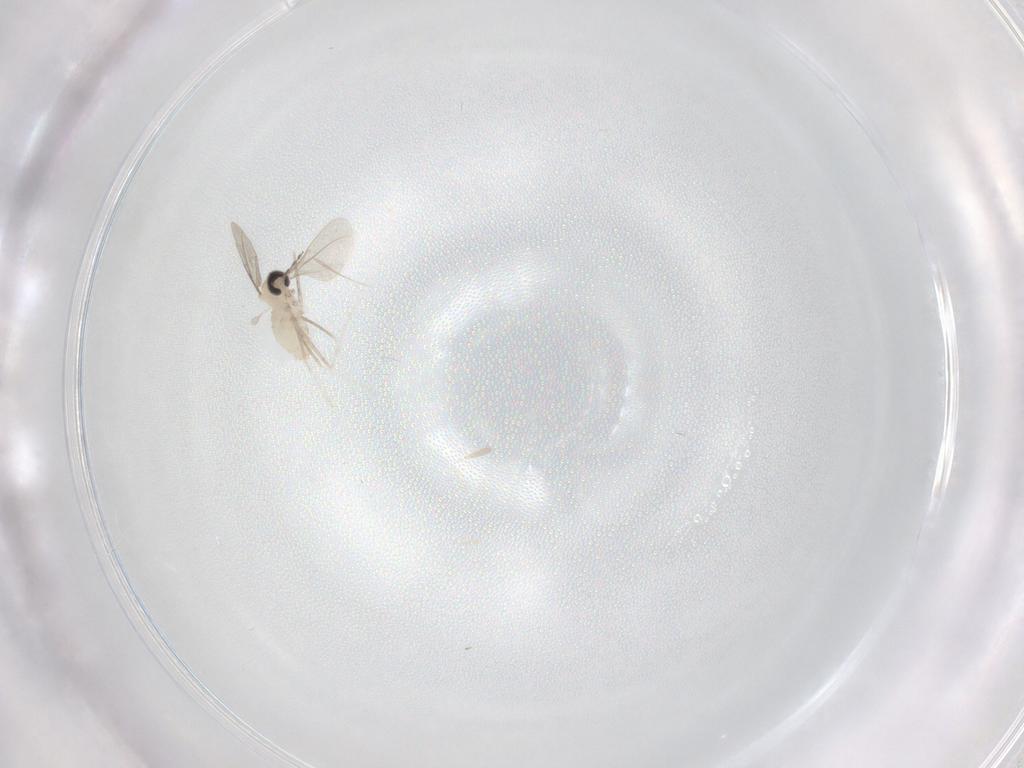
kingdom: Animalia
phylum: Arthropoda
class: Insecta
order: Diptera
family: Cecidomyiidae
